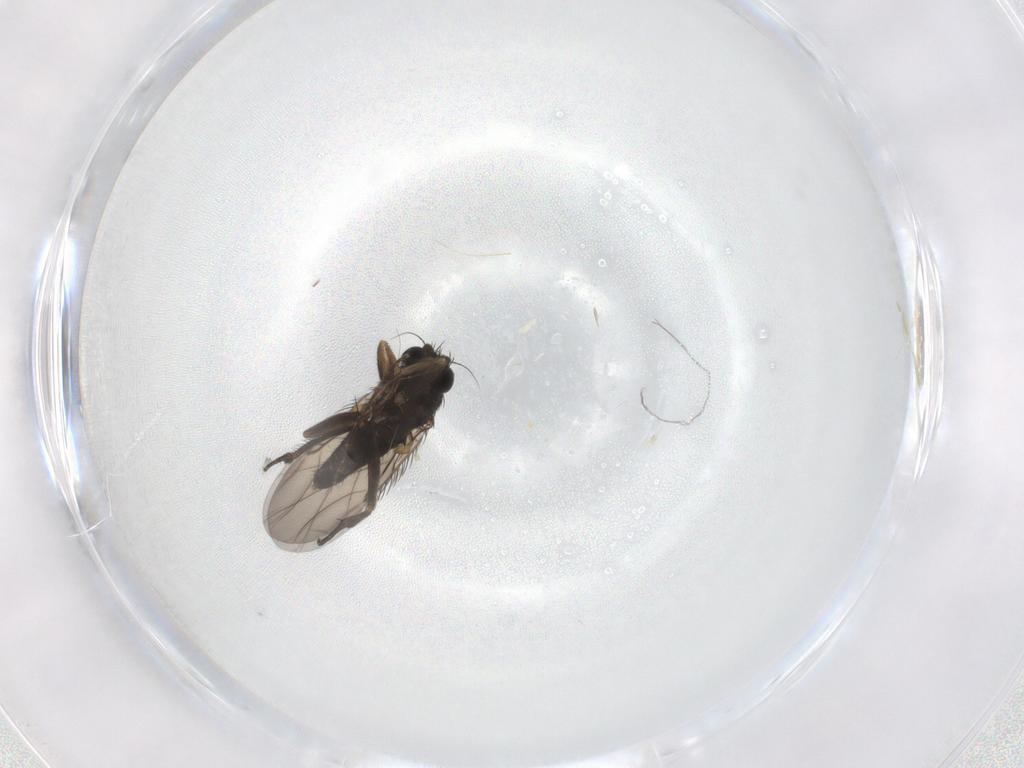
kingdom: Animalia
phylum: Arthropoda
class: Insecta
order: Diptera
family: Phoridae
